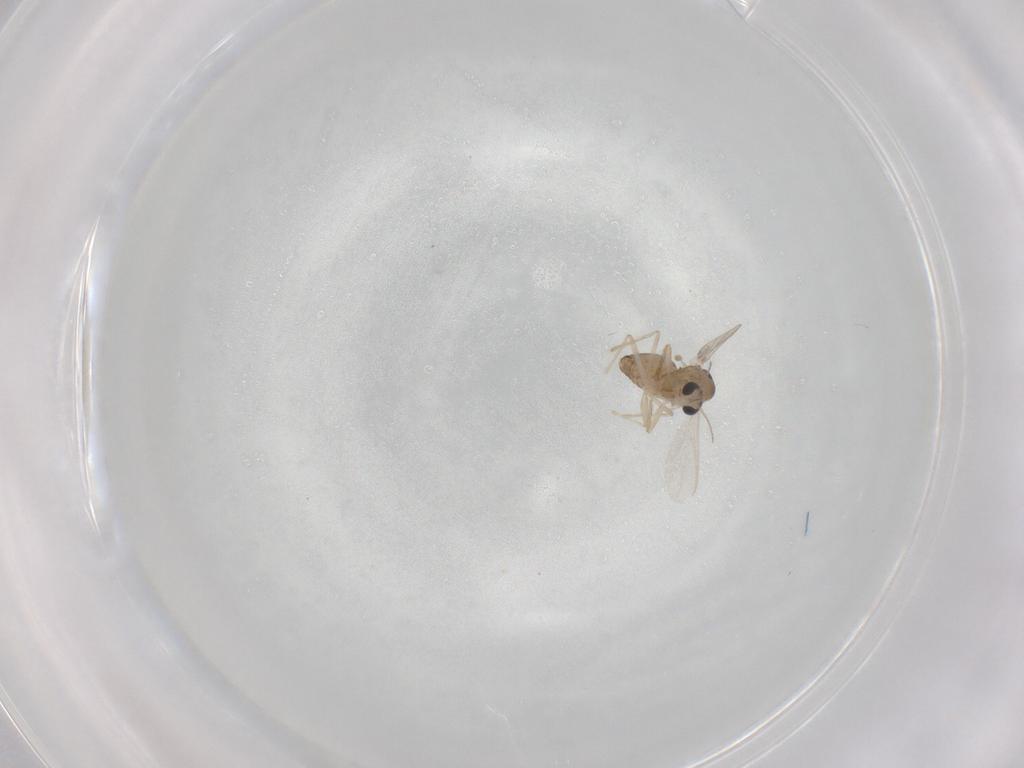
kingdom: Animalia
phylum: Arthropoda
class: Insecta
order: Diptera
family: Chironomidae
